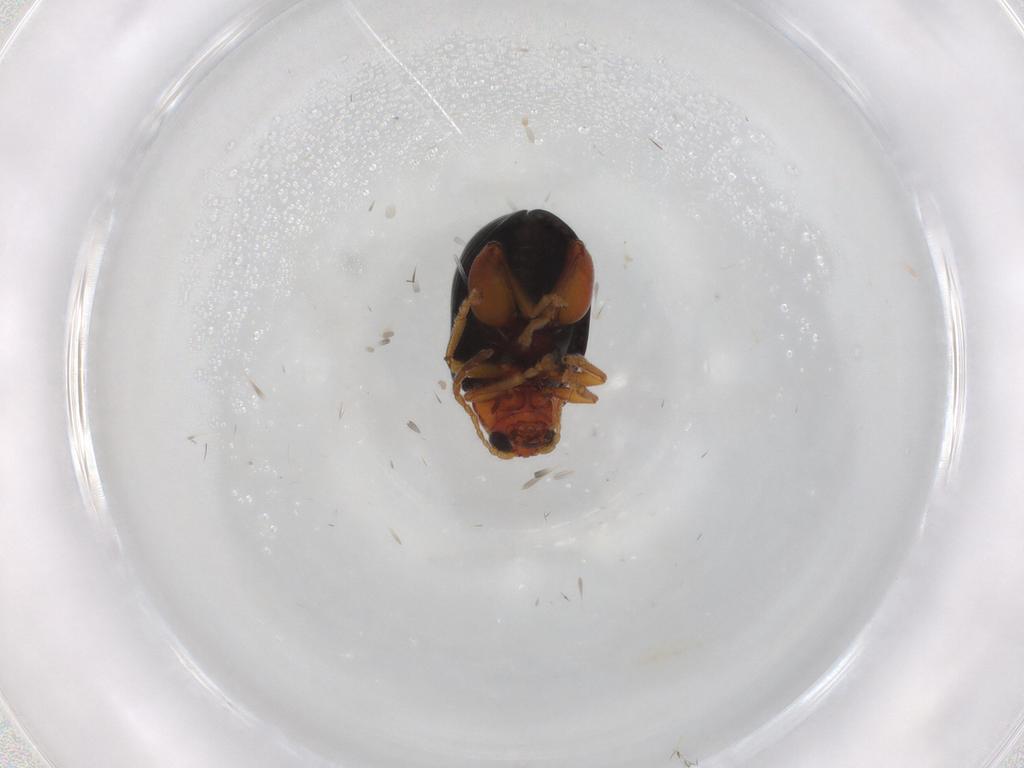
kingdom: Animalia
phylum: Arthropoda
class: Insecta
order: Coleoptera
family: Chrysomelidae
